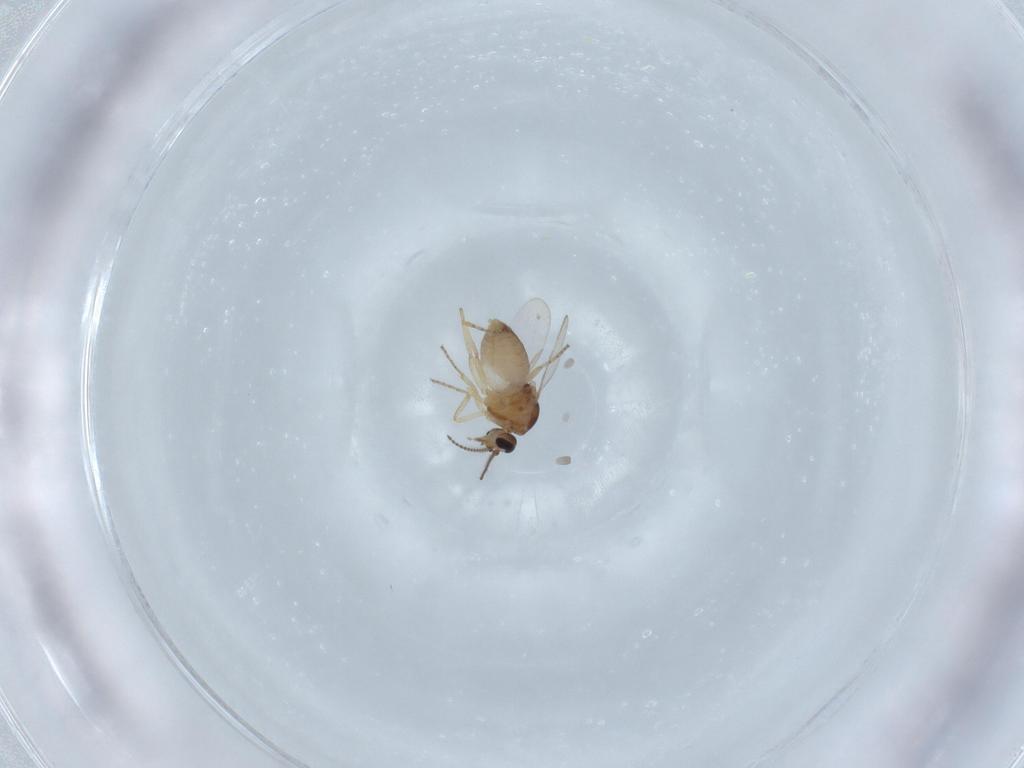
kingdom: Animalia
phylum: Arthropoda
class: Insecta
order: Diptera
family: Ceratopogonidae
